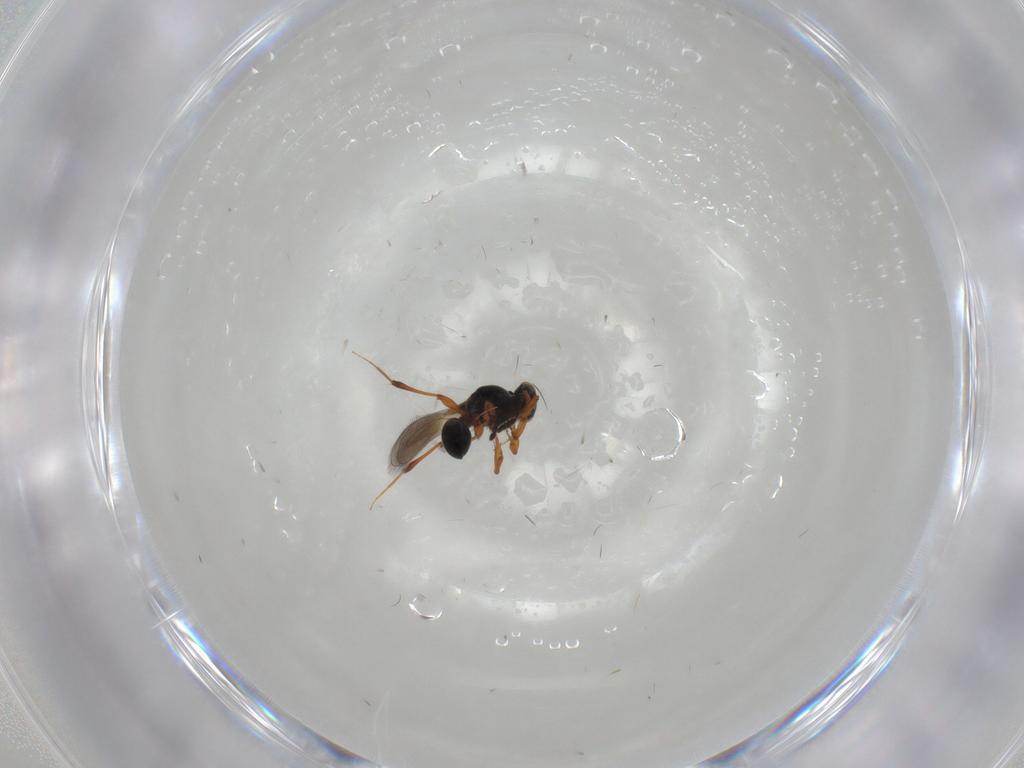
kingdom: Animalia
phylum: Arthropoda
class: Insecta
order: Hymenoptera
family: Platygastridae
